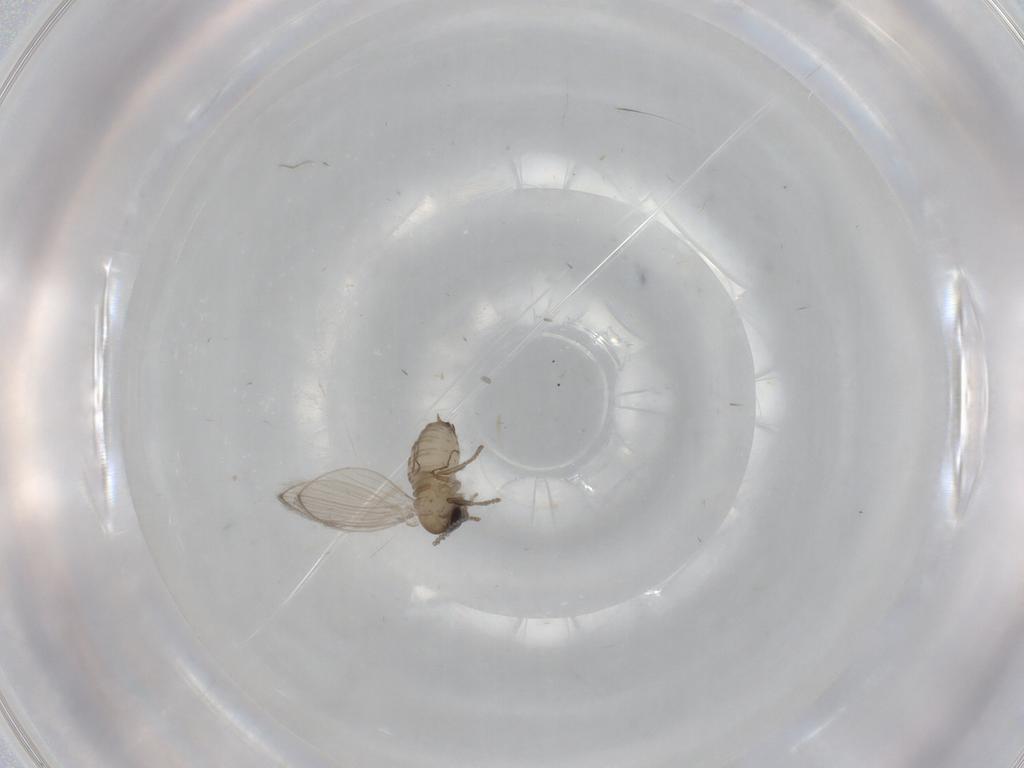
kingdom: Animalia
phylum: Arthropoda
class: Insecta
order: Diptera
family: Psychodidae
